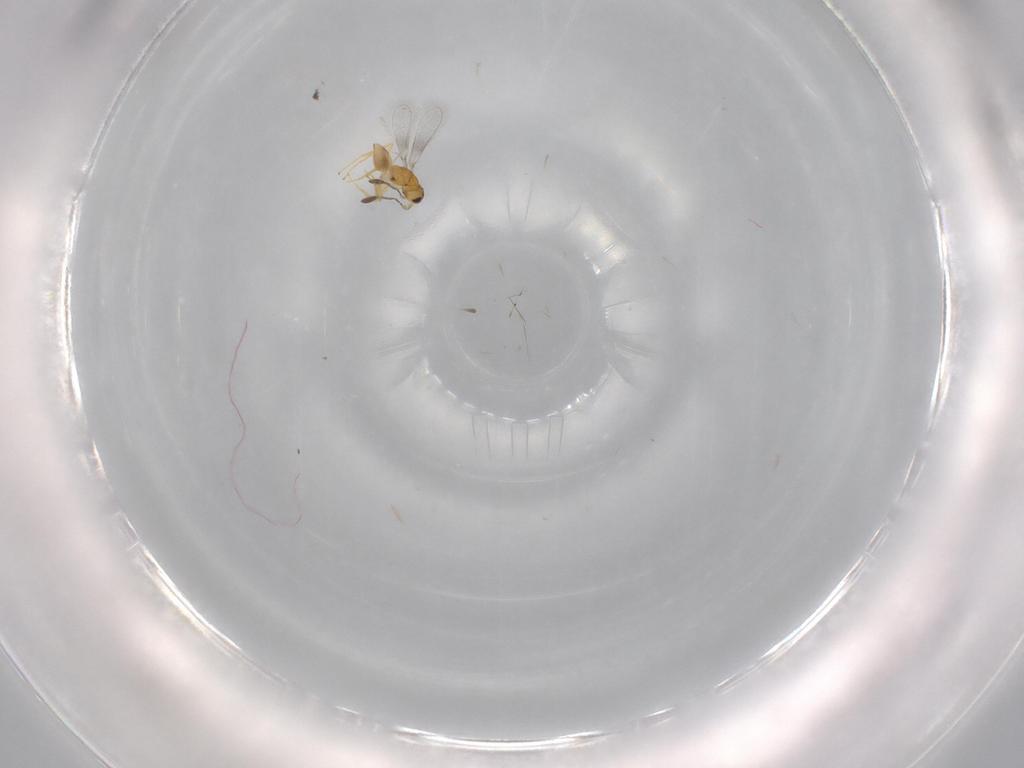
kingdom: Animalia
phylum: Arthropoda
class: Insecta
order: Hymenoptera
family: Mymaridae
